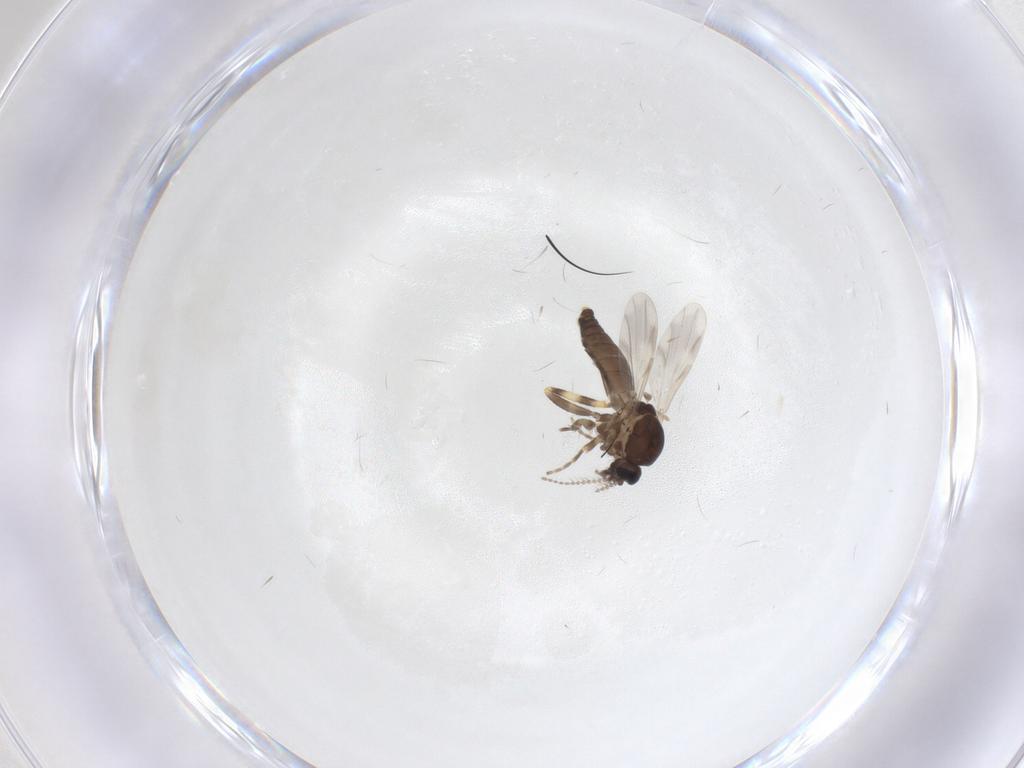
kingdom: Animalia
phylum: Arthropoda
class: Insecta
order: Diptera
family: Ceratopogonidae
